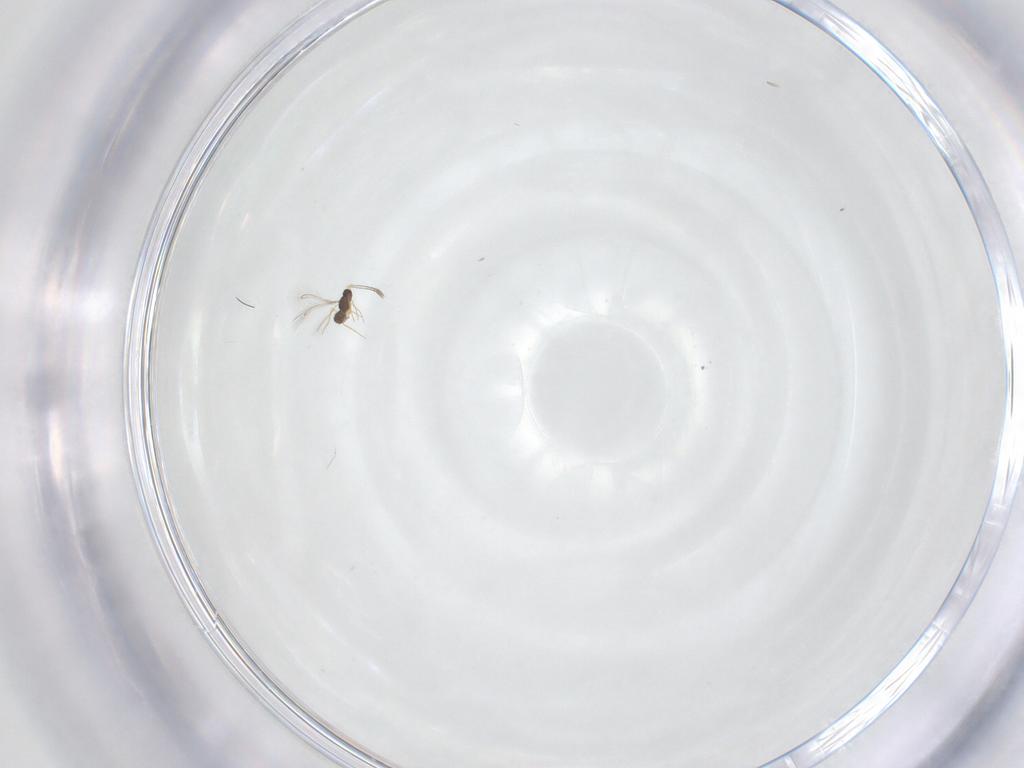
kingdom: Animalia
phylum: Arthropoda
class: Insecta
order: Hymenoptera
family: Mymaridae
